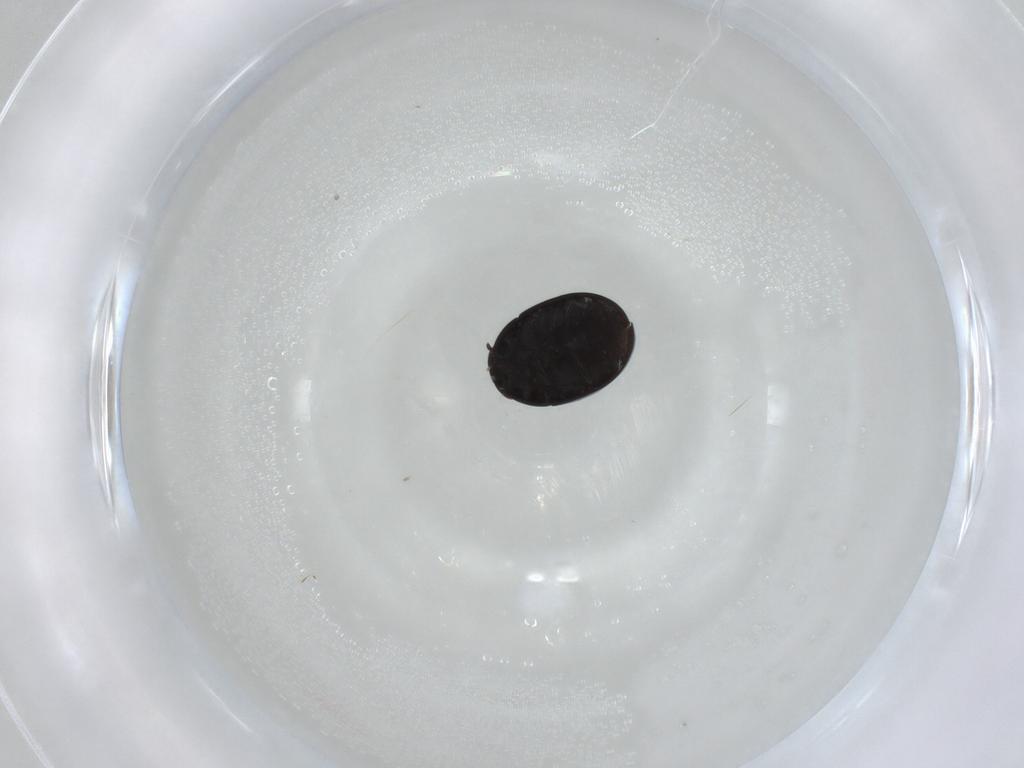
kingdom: Animalia
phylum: Arthropoda
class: Insecta
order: Coleoptera
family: Phalacridae
